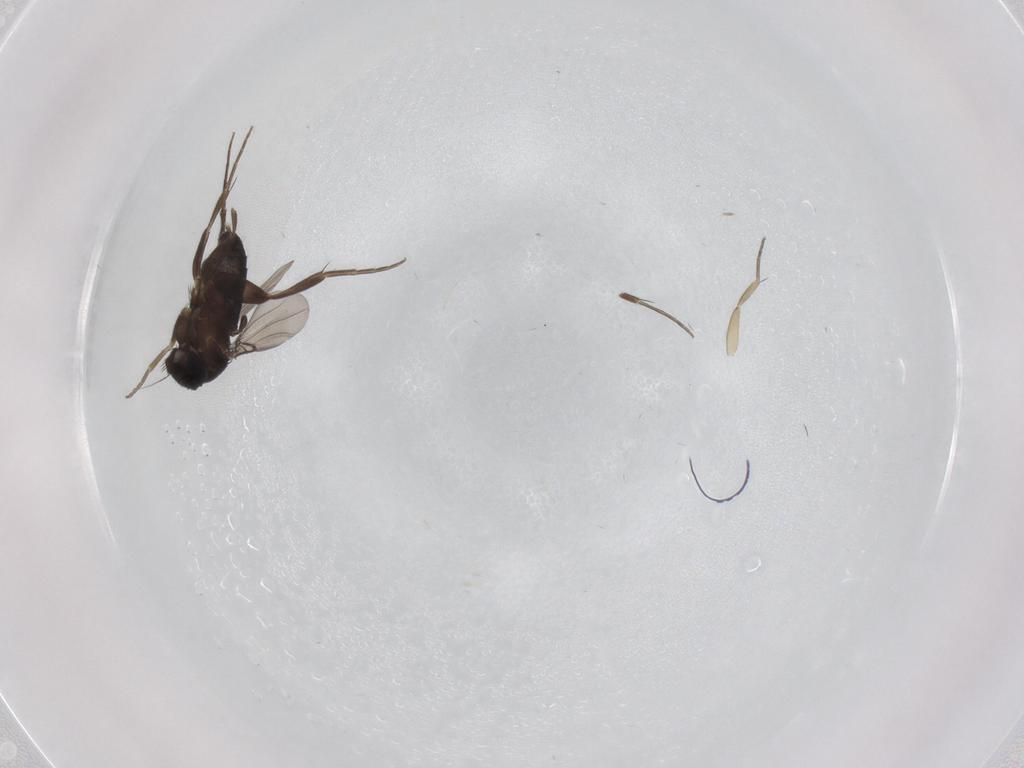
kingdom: Animalia
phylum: Arthropoda
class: Insecta
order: Diptera
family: Phoridae
